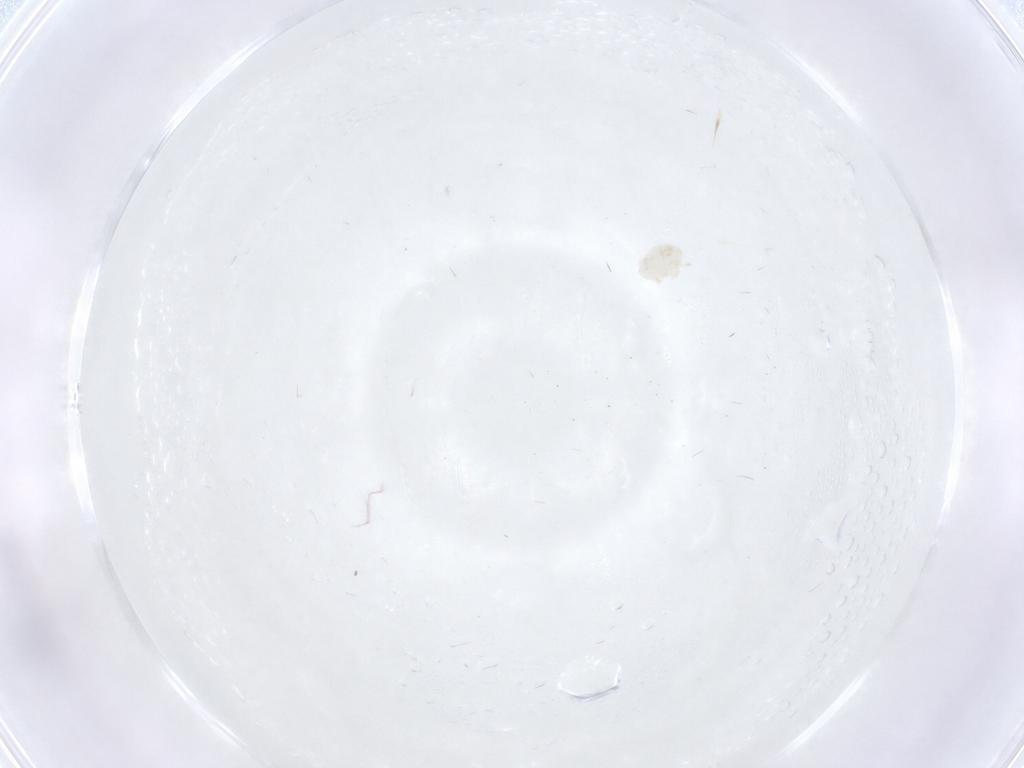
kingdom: Animalia
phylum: Arthropoda
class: Arachnida
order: Trombidiformes
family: Microtrombidiidae
